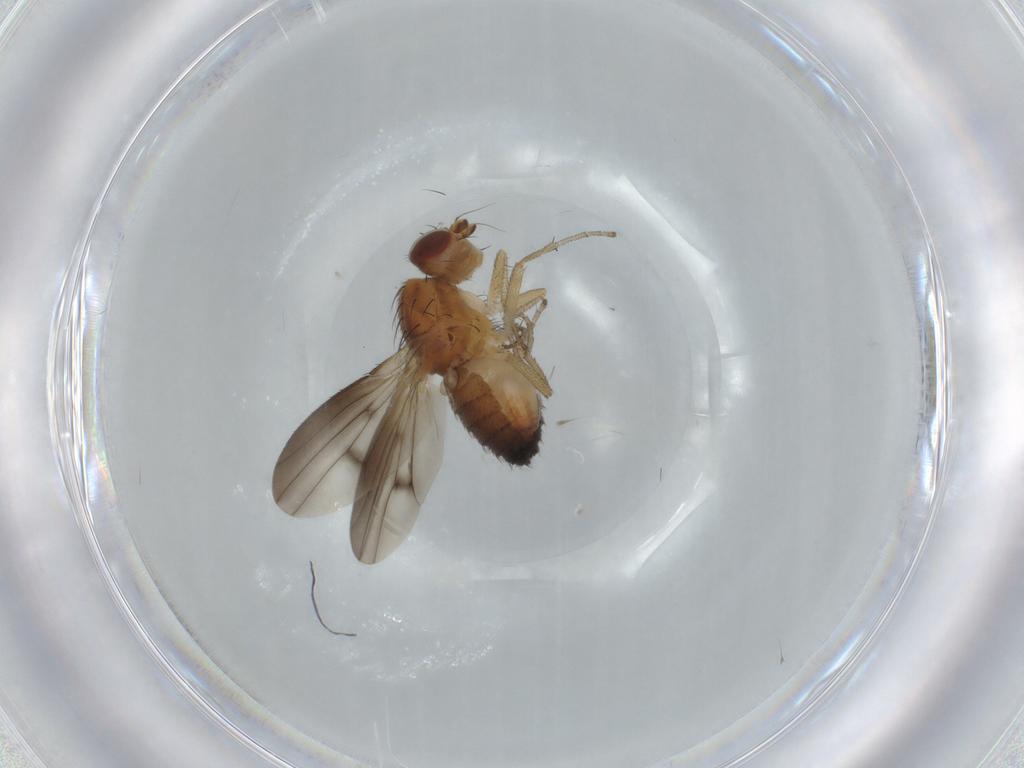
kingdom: Animalia
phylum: Arthropoda
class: Insecta
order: Diptera
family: Heleomyzidae
